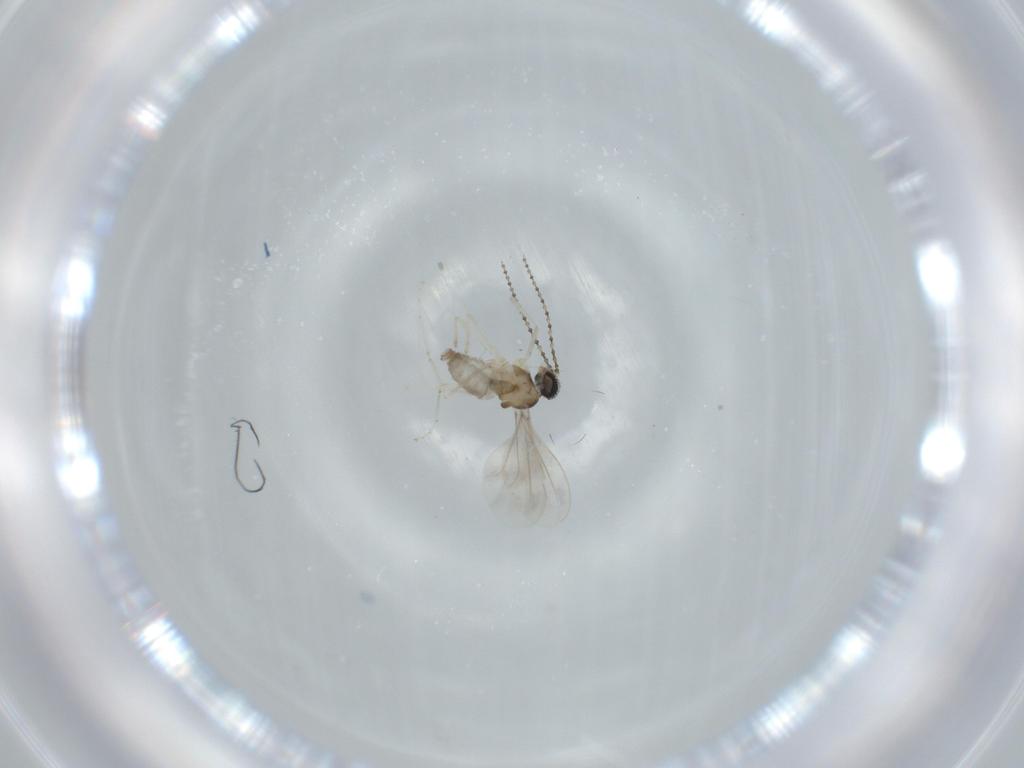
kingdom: Animalia
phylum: Arthropoda
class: Insecta
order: Diptera
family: Cecidomyiidae
